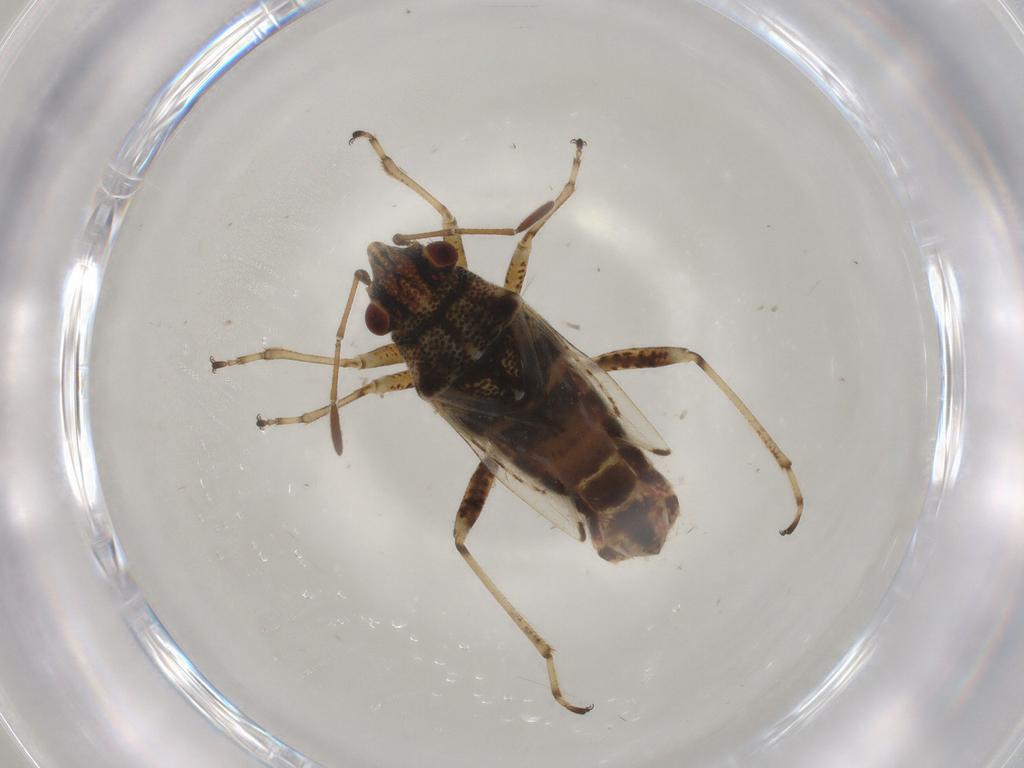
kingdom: Animalia
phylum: Arthropoda
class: Insecta
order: Hemiptera
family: Lygaeidae
